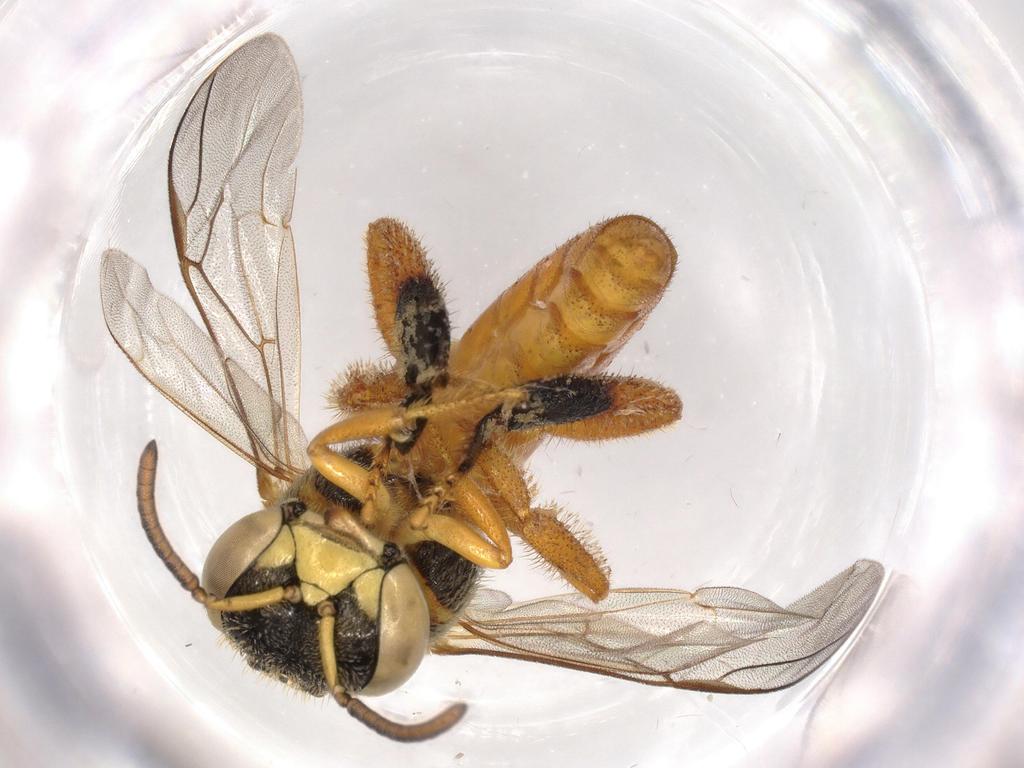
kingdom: Animalia
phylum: Arthropoda
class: Insecta
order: Hymenoptera
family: Apidae
